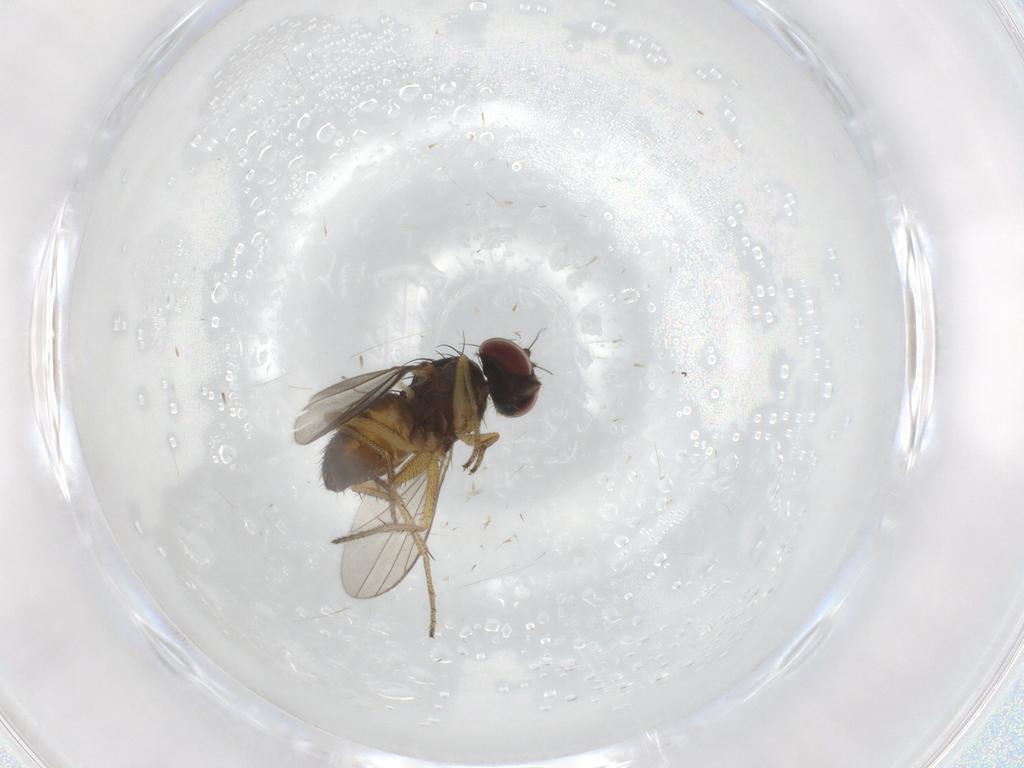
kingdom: Animalia
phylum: Arthropoda
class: Insecta
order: Diptera
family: Dolichopodidae
